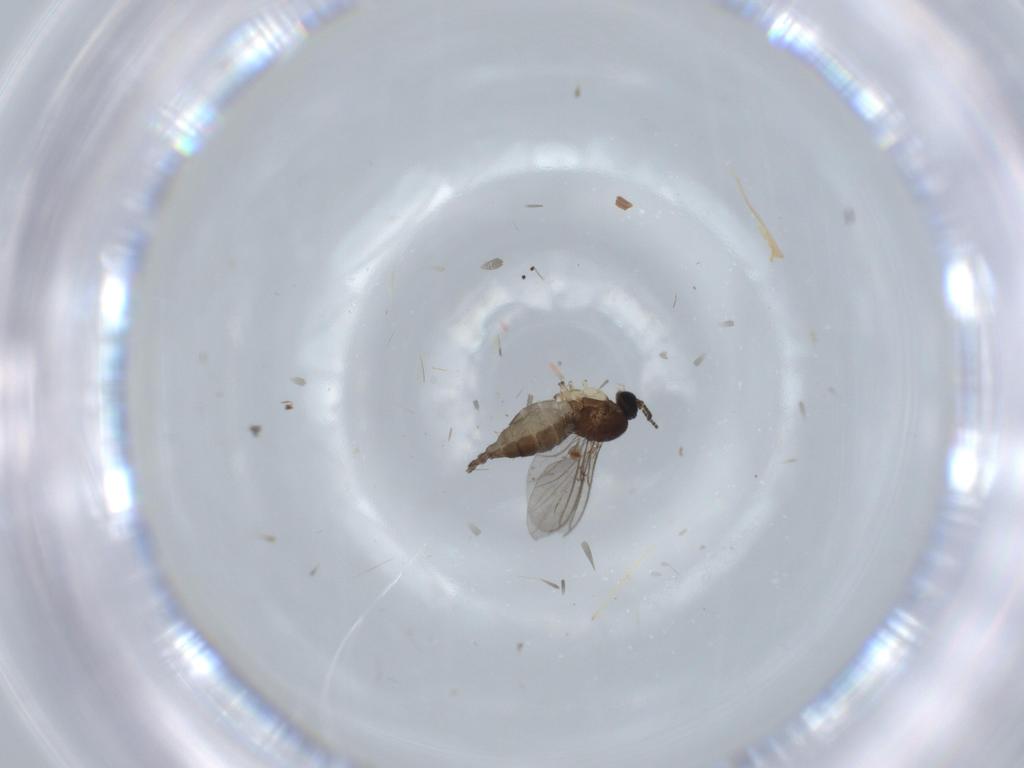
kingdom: Animalia
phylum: Arthropoda
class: Insecta
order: Diptera
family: Sciaridae
